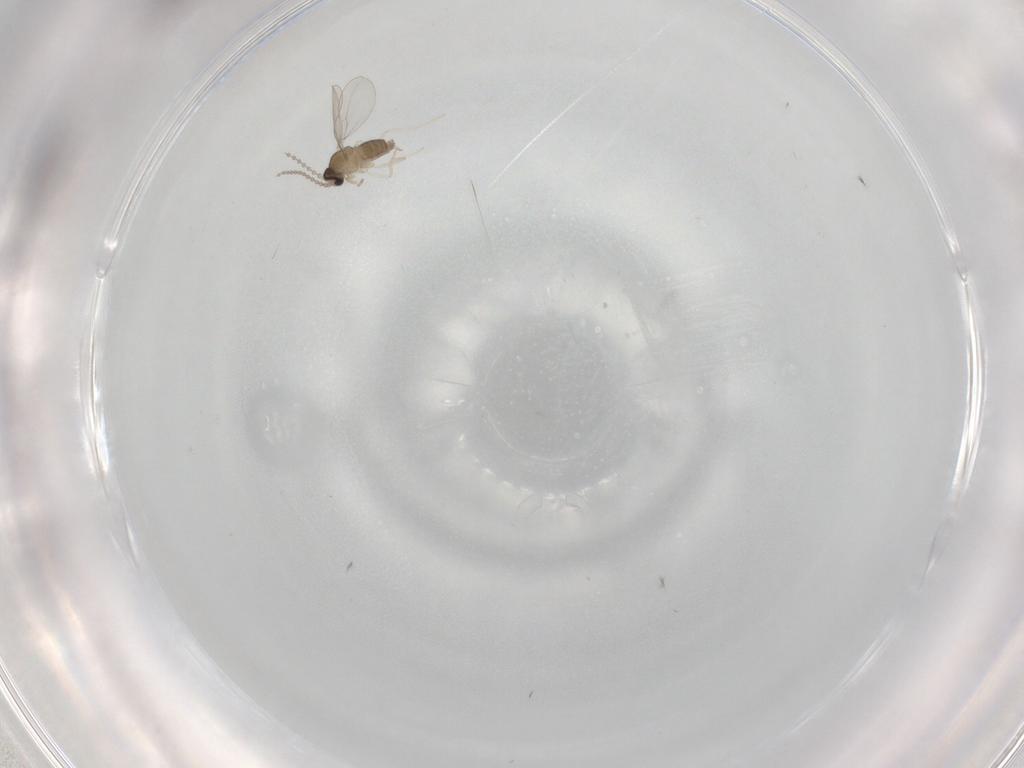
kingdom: Animalia
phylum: Arthropoda
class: Insecta
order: Diptera
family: Cecidomyiidae
